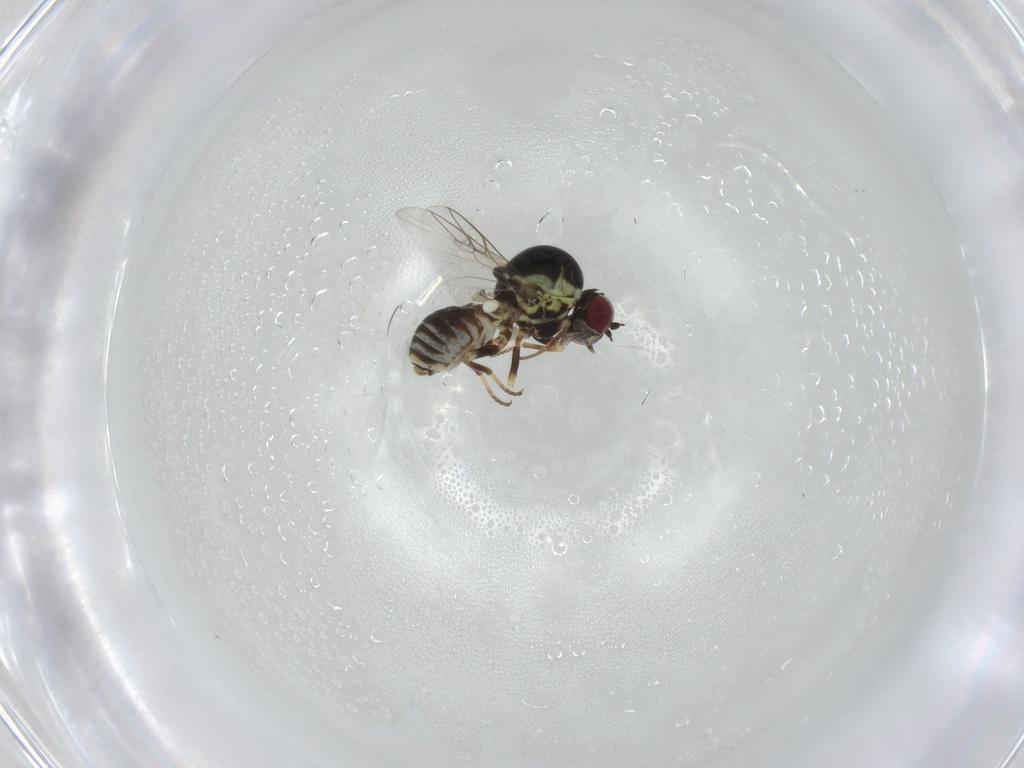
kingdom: Animalia
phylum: Arthropoda
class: Insecta
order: Diptera
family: Bombyliidae
